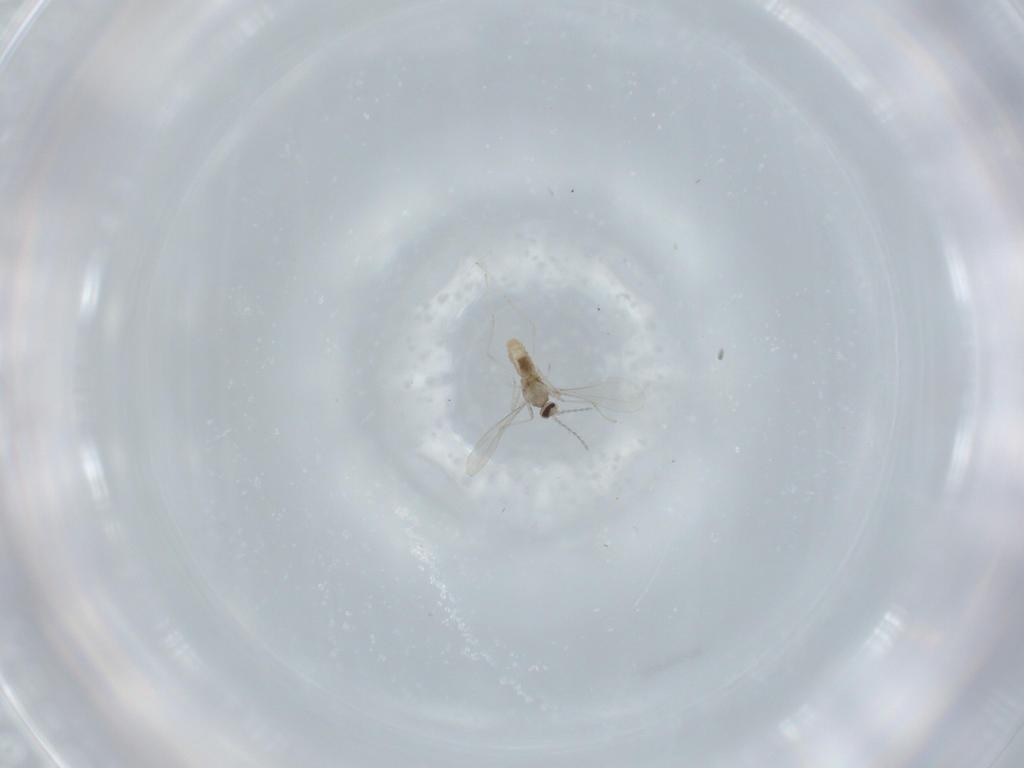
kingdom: Animalia
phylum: Arthropoda
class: Insecta
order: Diptera
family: Cecidomyiidae
